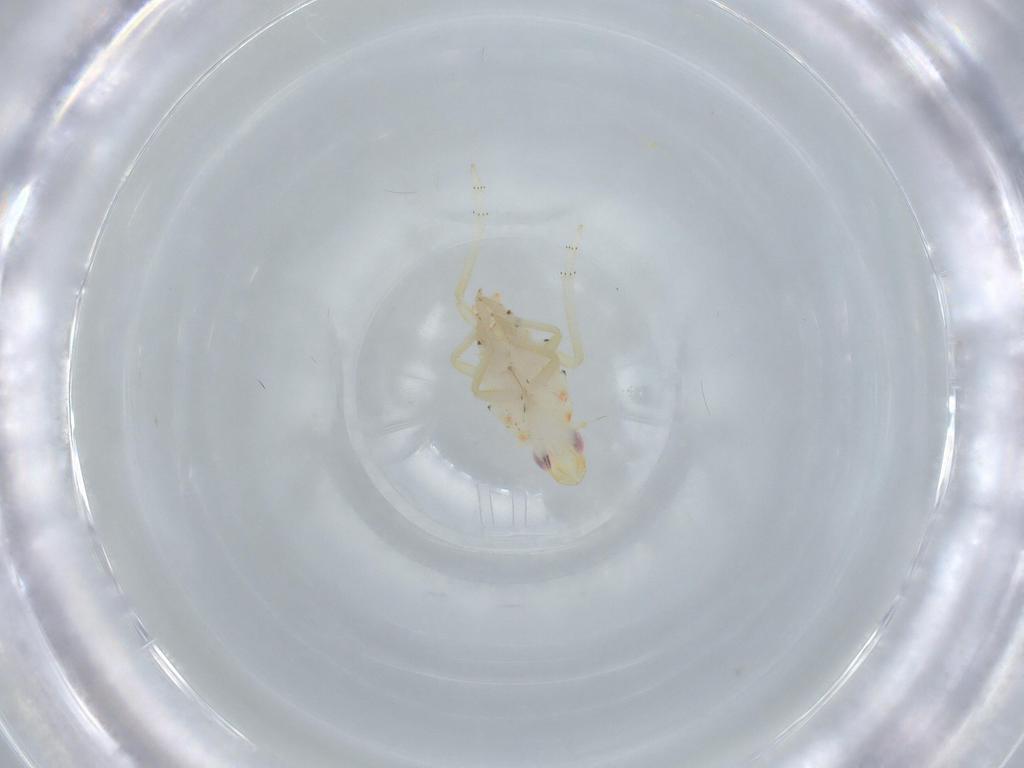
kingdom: Animalia
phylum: Arthropoda
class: Insecta
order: Hemiptera
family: Tropiduchidae
